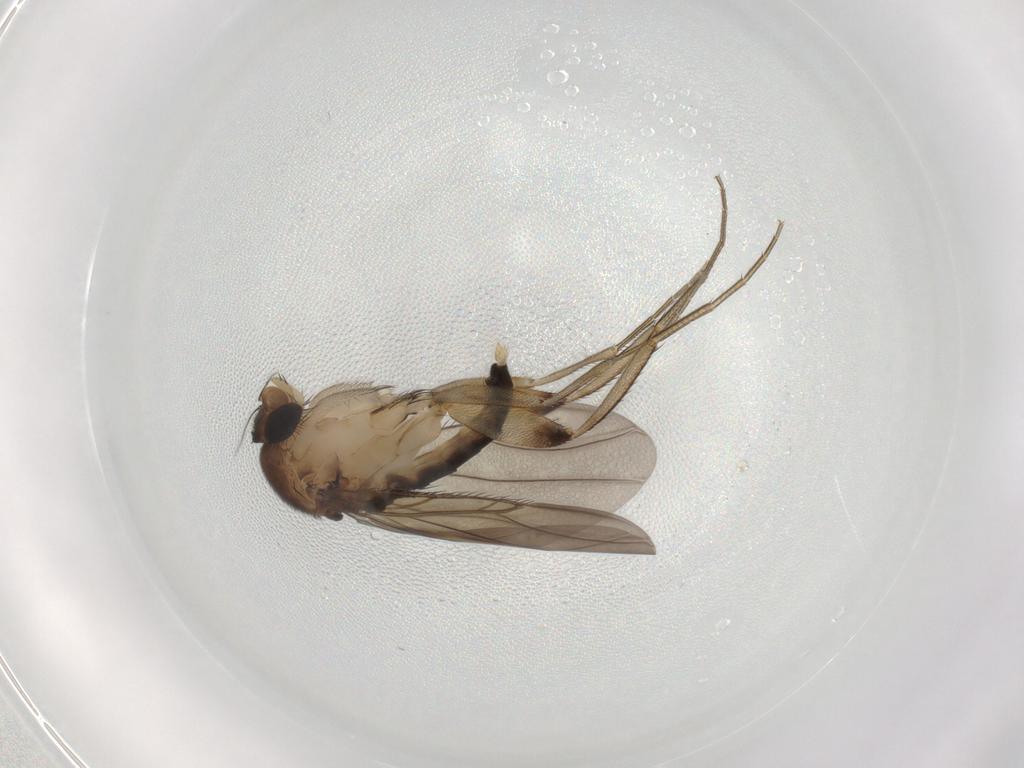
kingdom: Animalia
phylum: Arthropoda
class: Insecta
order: Diptera
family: Phoridae
